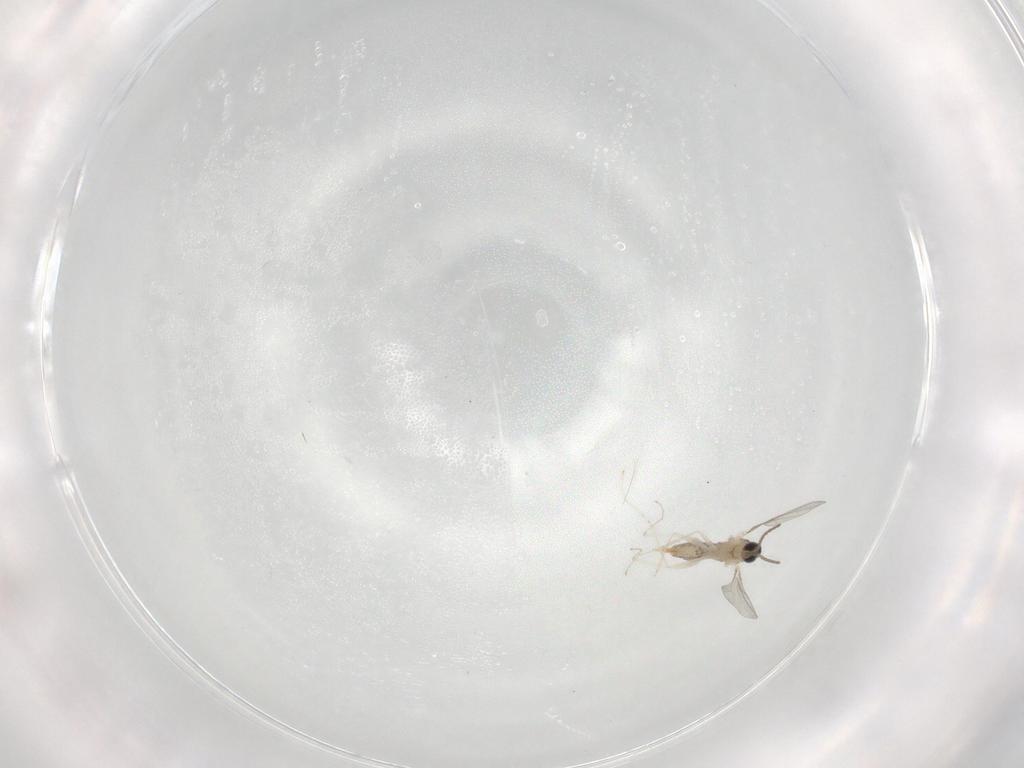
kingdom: Animalia
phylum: Arthropoda
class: Insecta
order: Diptera
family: Cecidomyiidae
